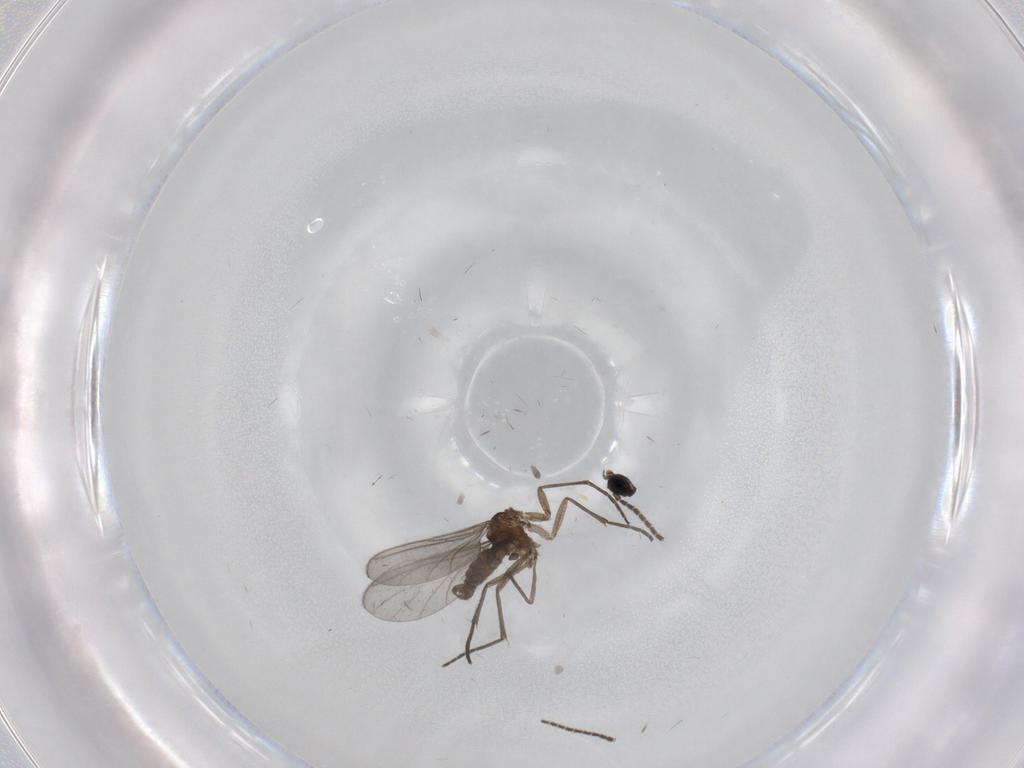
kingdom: Animalia
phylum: Arthropoda
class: Insecta
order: Diptera
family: Sciaridae
